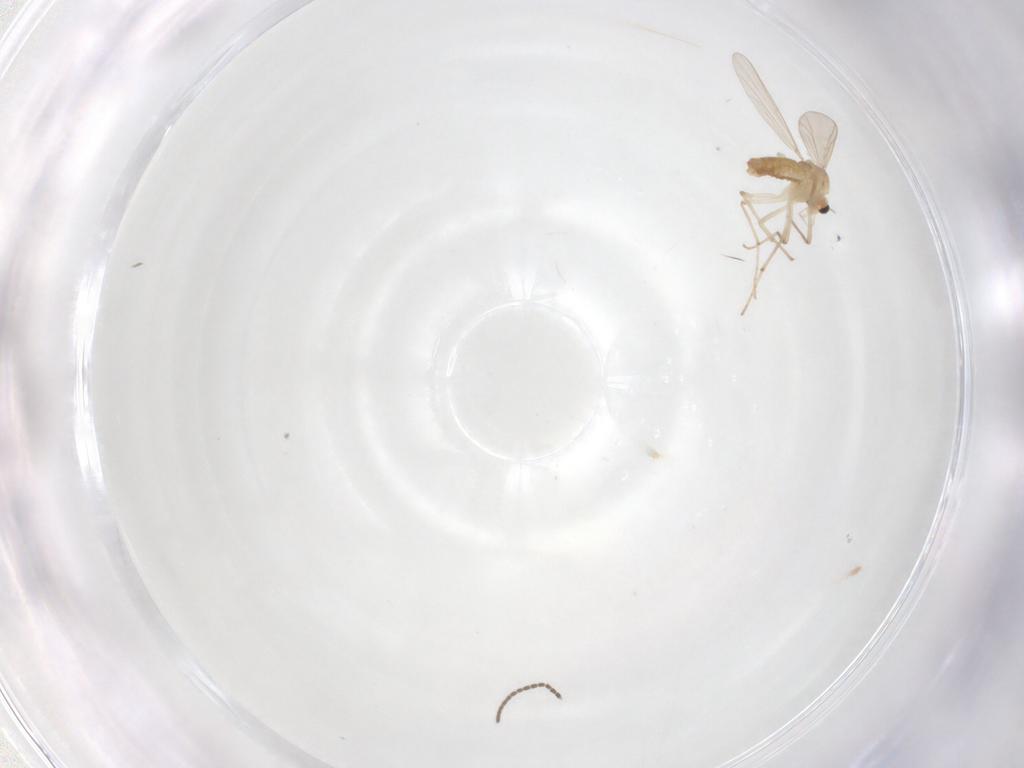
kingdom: Animalia
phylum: Arthropoda
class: Insecta
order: Diptera
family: Chironomidae
